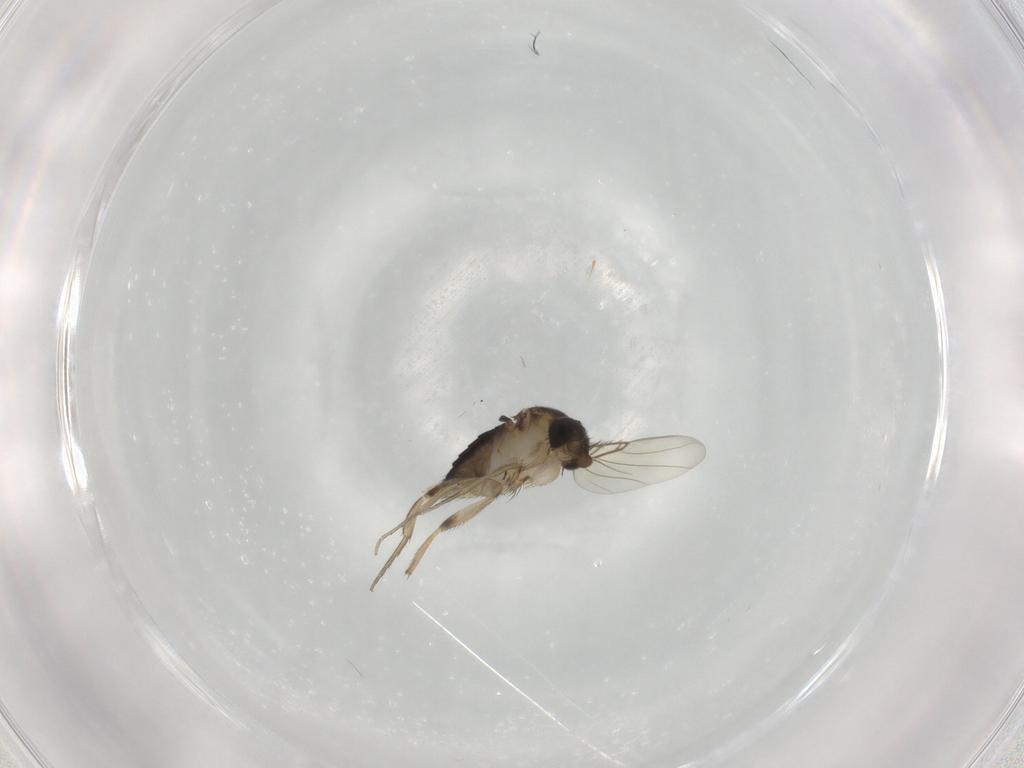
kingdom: Animalia
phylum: Arthropoda
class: Insecta
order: Diptera
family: Phoridae
